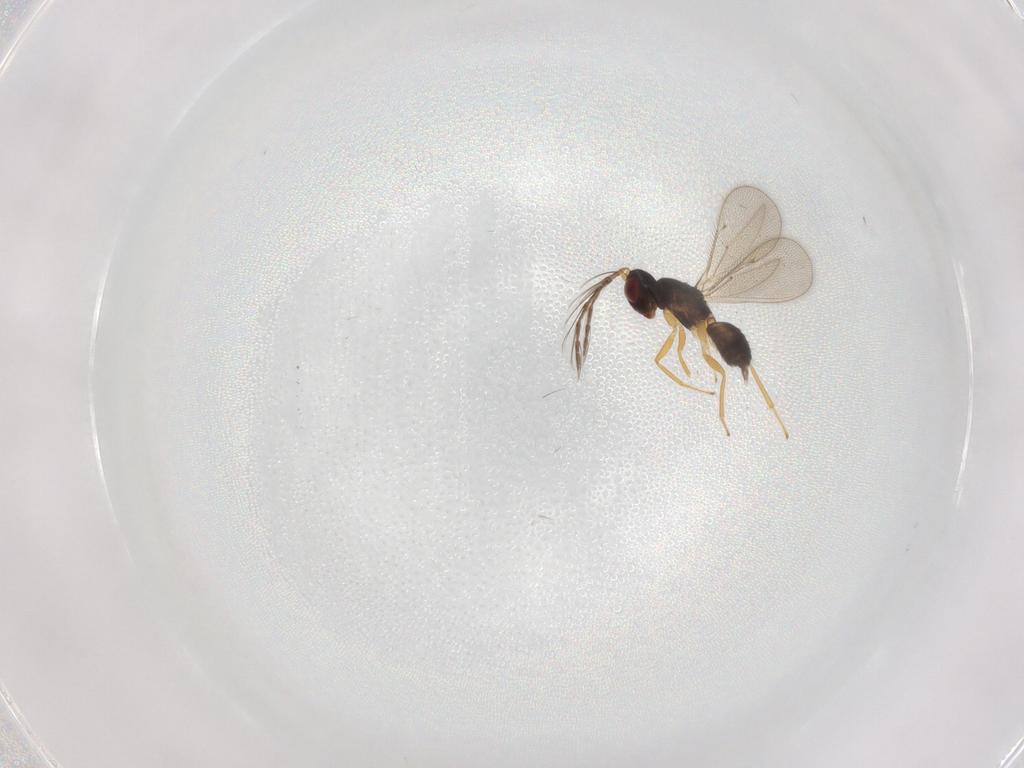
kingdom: Animalia
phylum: Arthropoda
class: Insecta
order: Hymenoptera
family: Eulophidae
